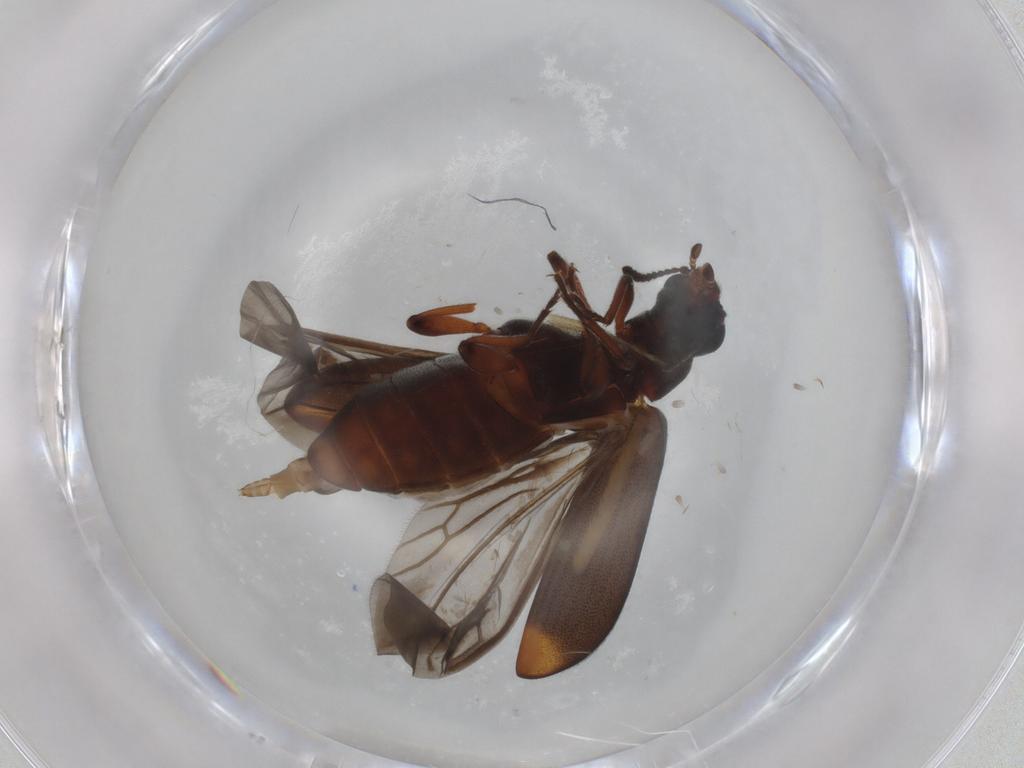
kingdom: Animalia
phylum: Arthropoda
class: Insecta
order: Coleoptera
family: Mycteridae
